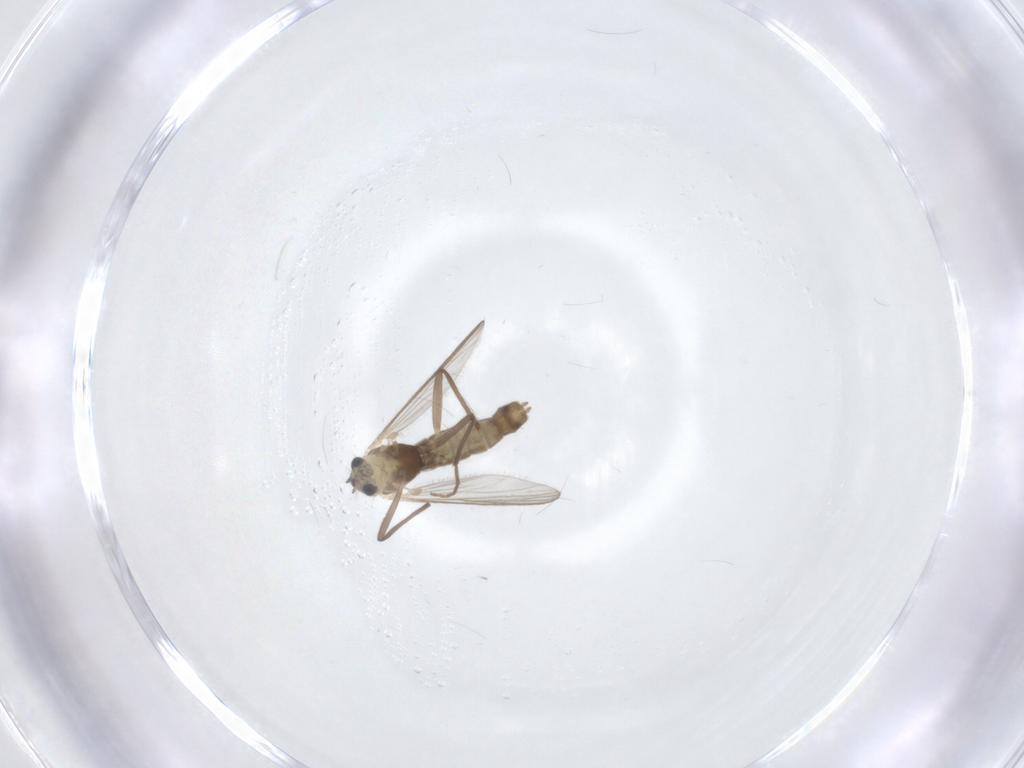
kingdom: Animalia
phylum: Arthropoda
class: Insecta
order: Diptera
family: Chironomidae
